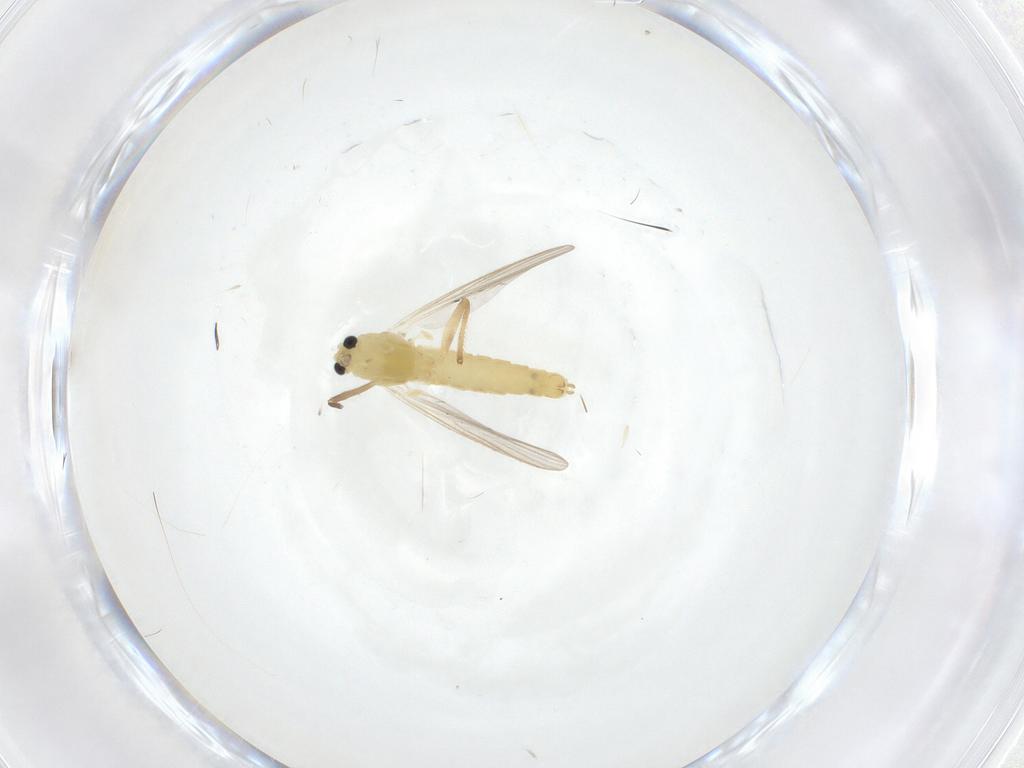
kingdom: Animalia
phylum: Arthropoda
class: Insecta
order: Diptera
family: Chironomidae
